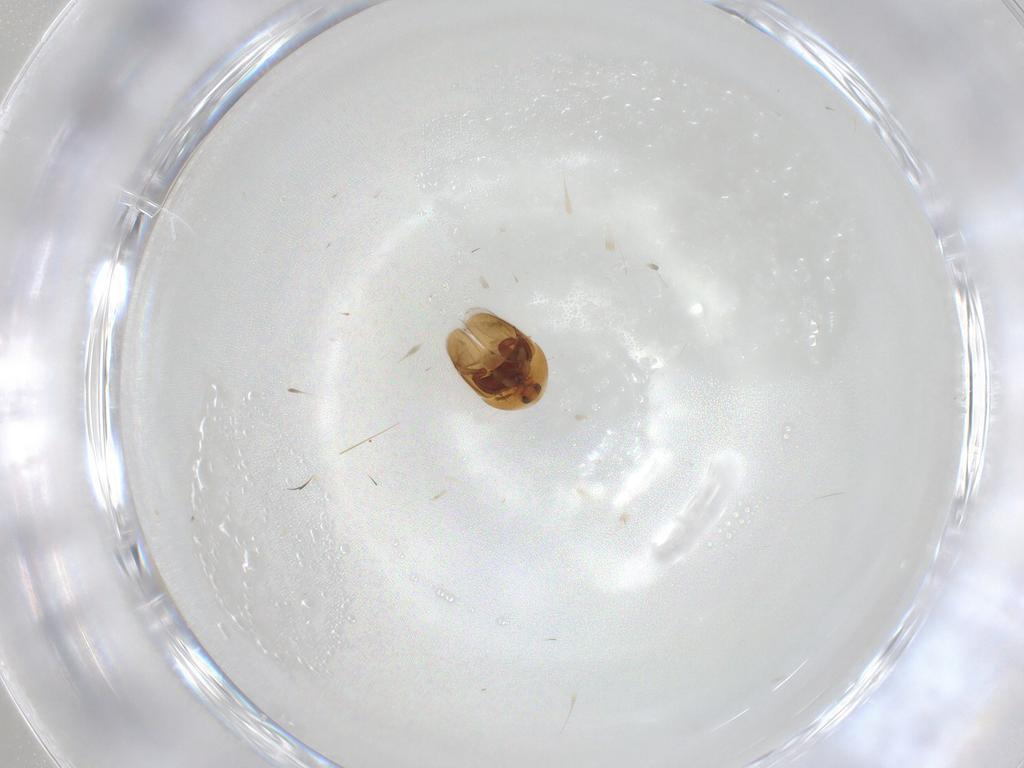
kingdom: Animalia
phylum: Arthropoda
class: Insecta
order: Coleoptera
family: Corylophidae
